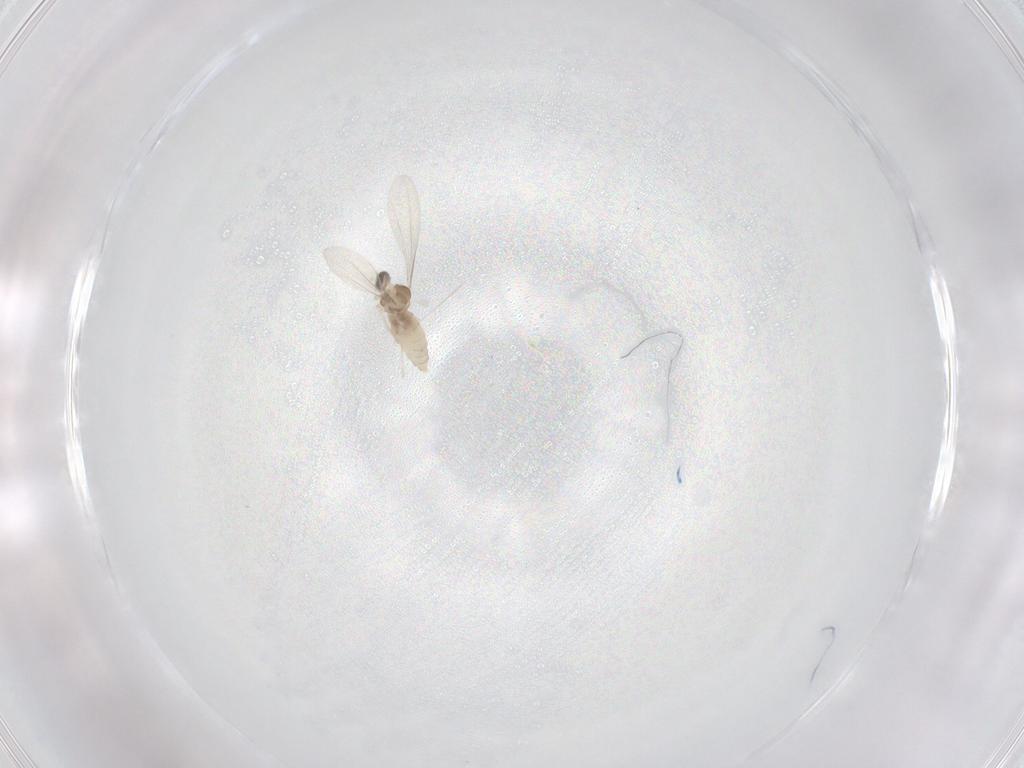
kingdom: Animalia
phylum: Arthropoda
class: Insecta
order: Diptera
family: Cecidomyiidae
